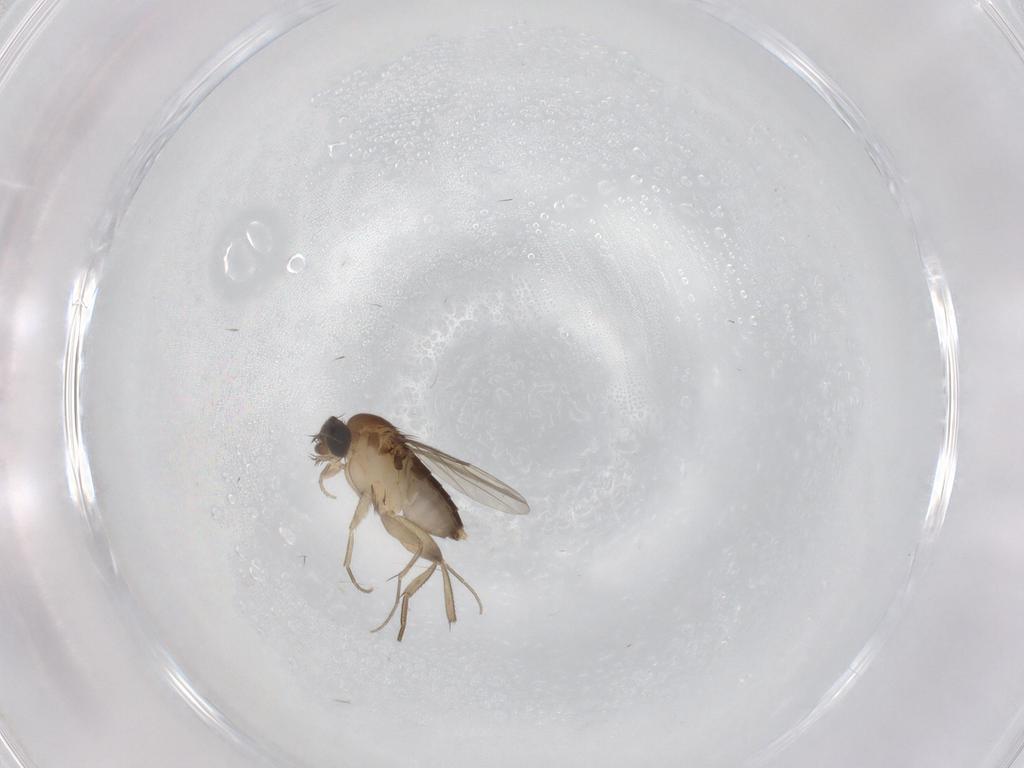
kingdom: Animalia
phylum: Arthropoda
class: Insecta
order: Diptera
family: Phoridae
